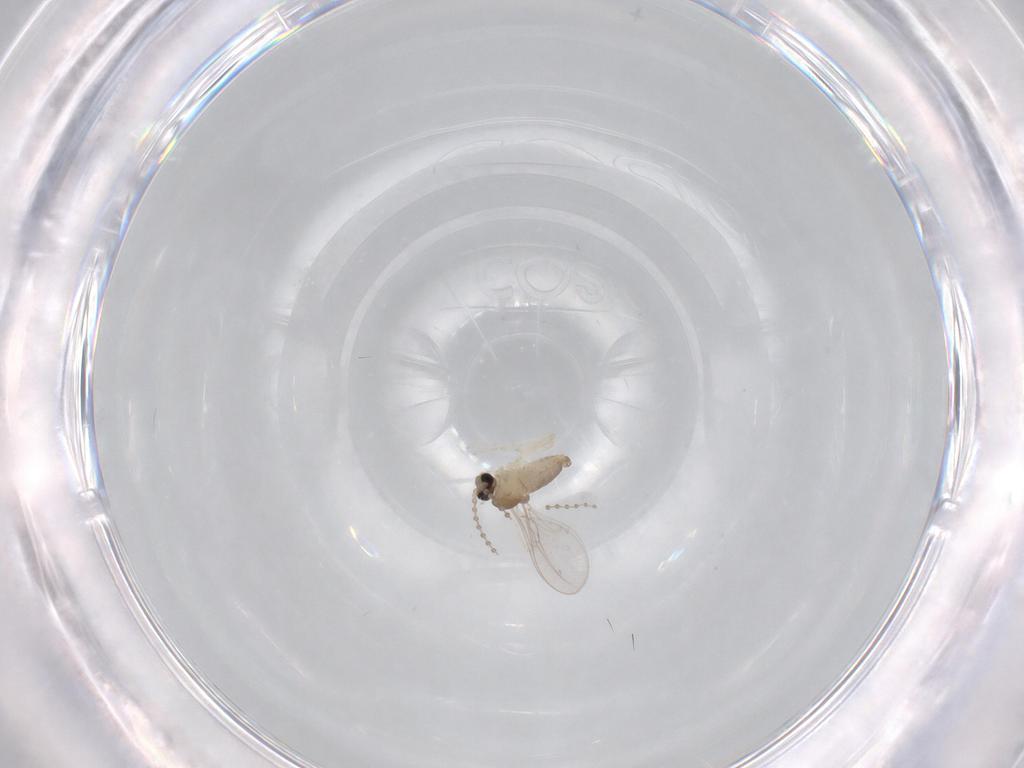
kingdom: Animalia
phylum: Arthropoda
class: Insecta
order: Diptera
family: Cecidomyiidae
